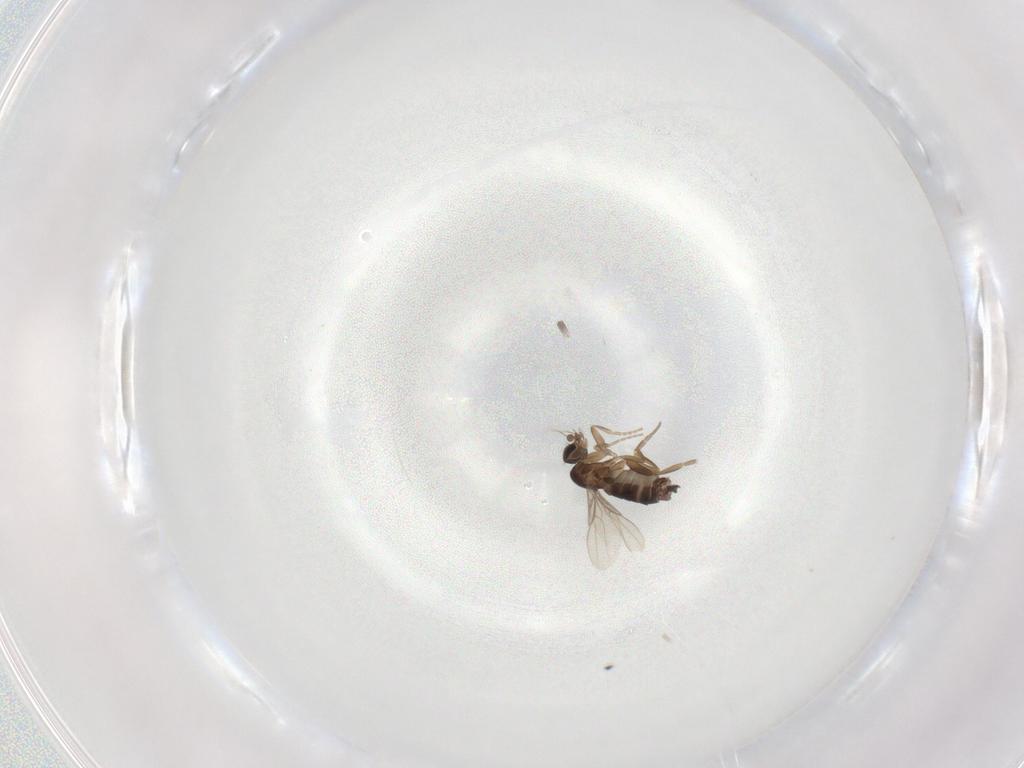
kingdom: Animalia
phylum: Arthropoda
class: Insecta
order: Diptera
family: Phoridae
